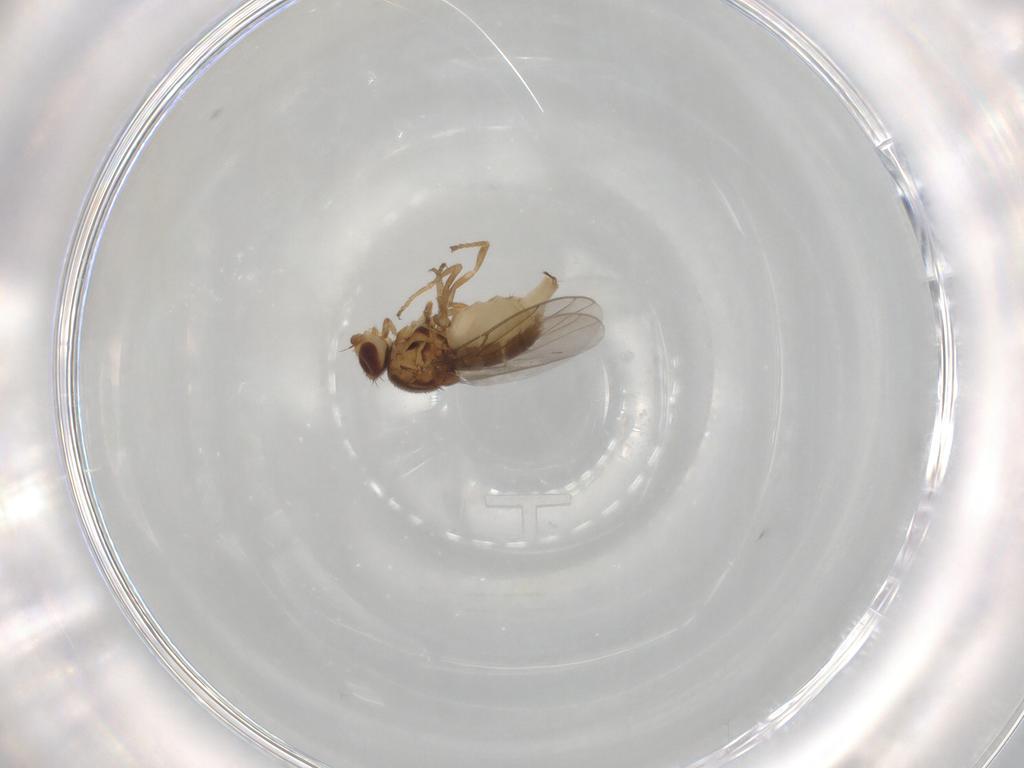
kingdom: Animalia
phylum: Arthropoda
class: Insecta
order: Diptera
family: Chloropidae
